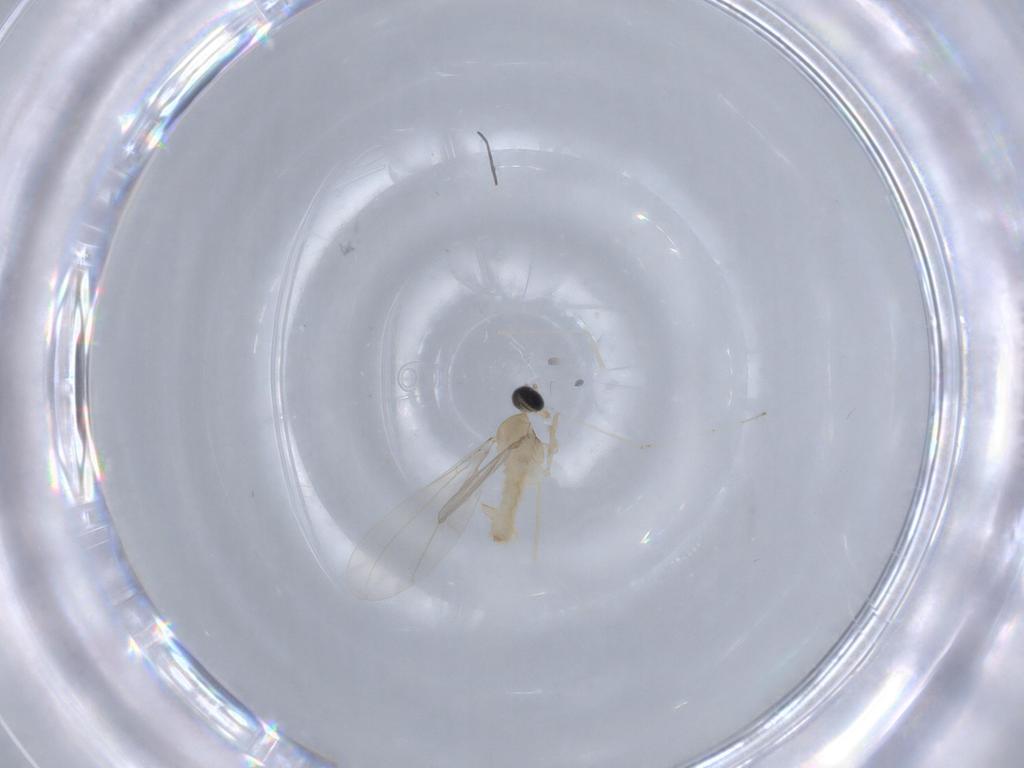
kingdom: Animalia
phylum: Arthropoda
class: Insecta
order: Diptera
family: Cecidomyiidae
